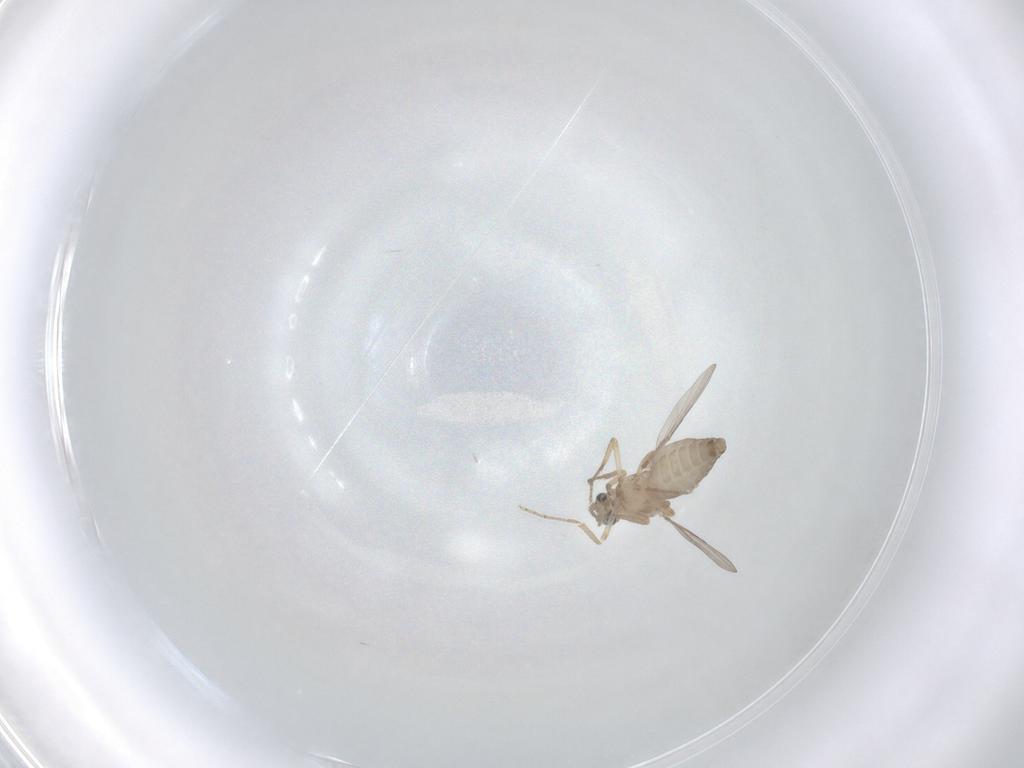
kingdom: Animalia
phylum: Arthropoda
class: Insecta
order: Diptera
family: Ceratopogonidae
